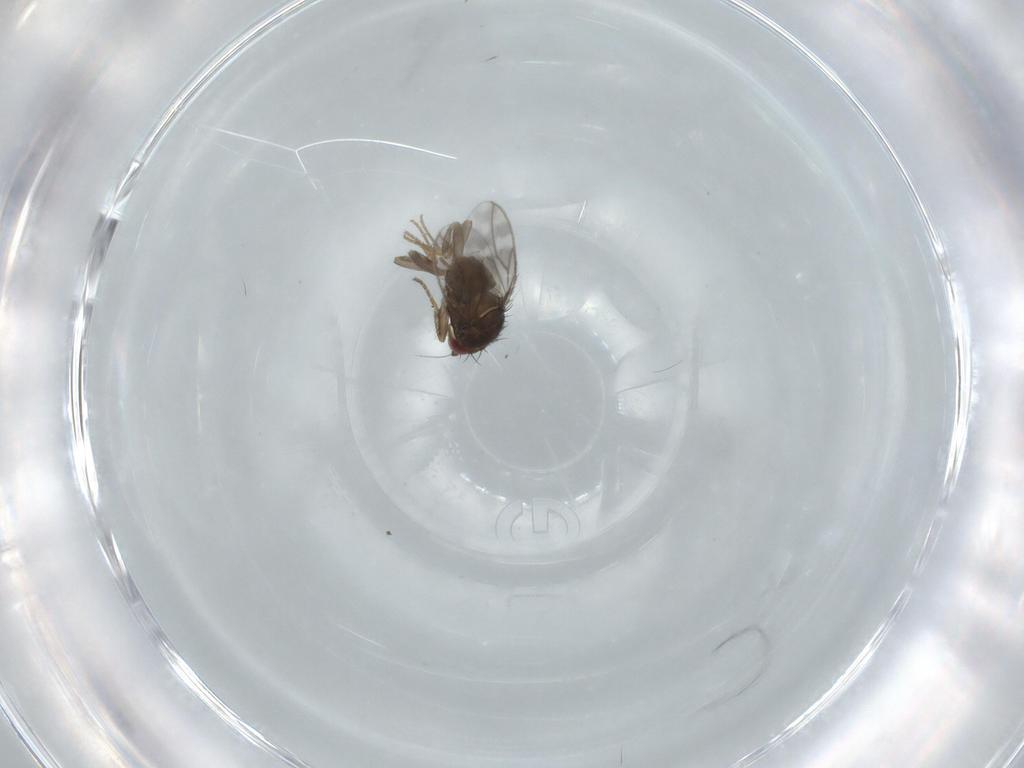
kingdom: Animalia
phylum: Arthropoda
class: Insecta
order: Diptera
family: Sphaeroceridae
